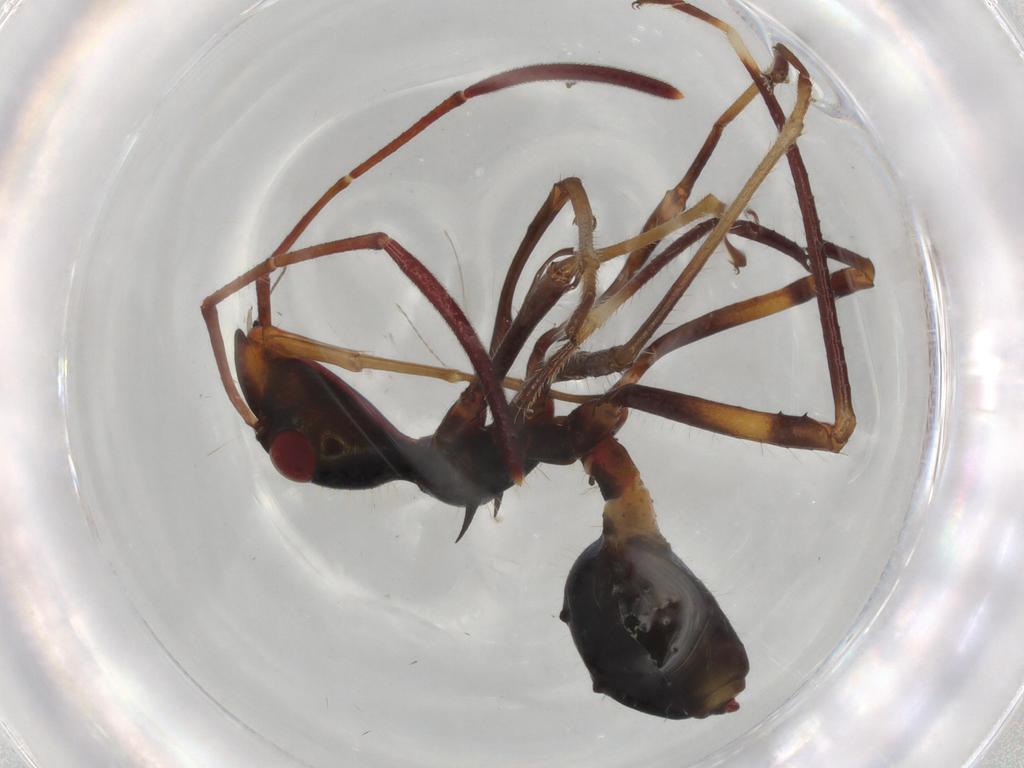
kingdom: Animalia
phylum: Arthropoda
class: Insecta
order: Hemiptera
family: Alydidae
